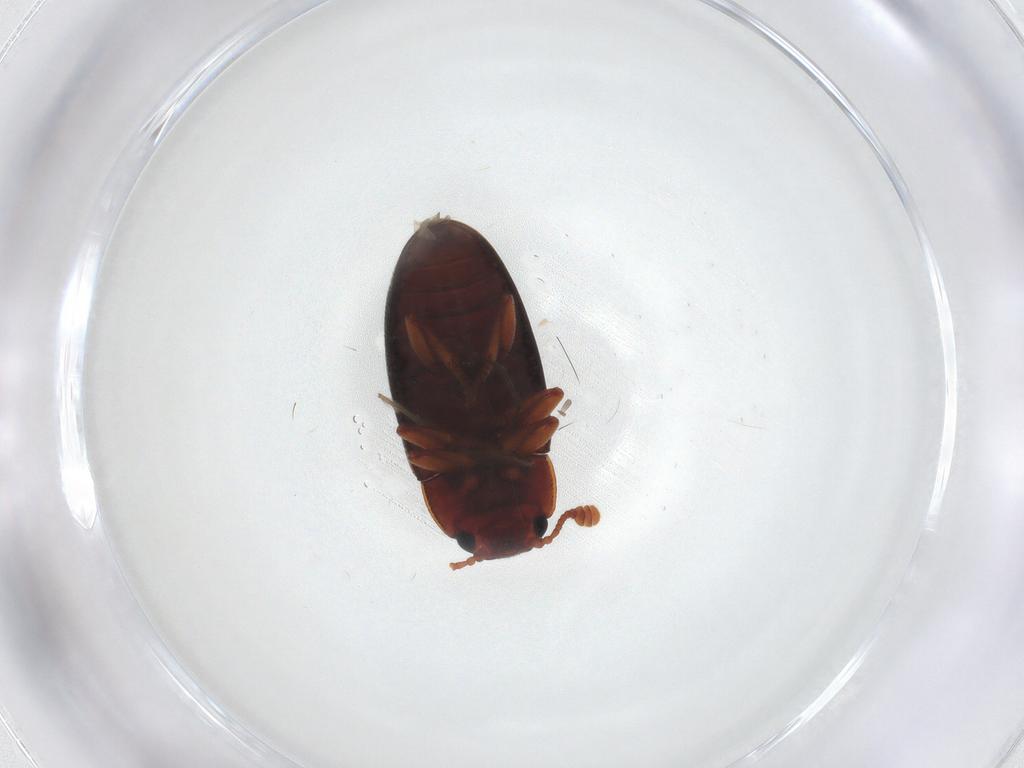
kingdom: Animalia
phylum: Arthropoda
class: Insecta
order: Coleoptera
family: Erotylidae
